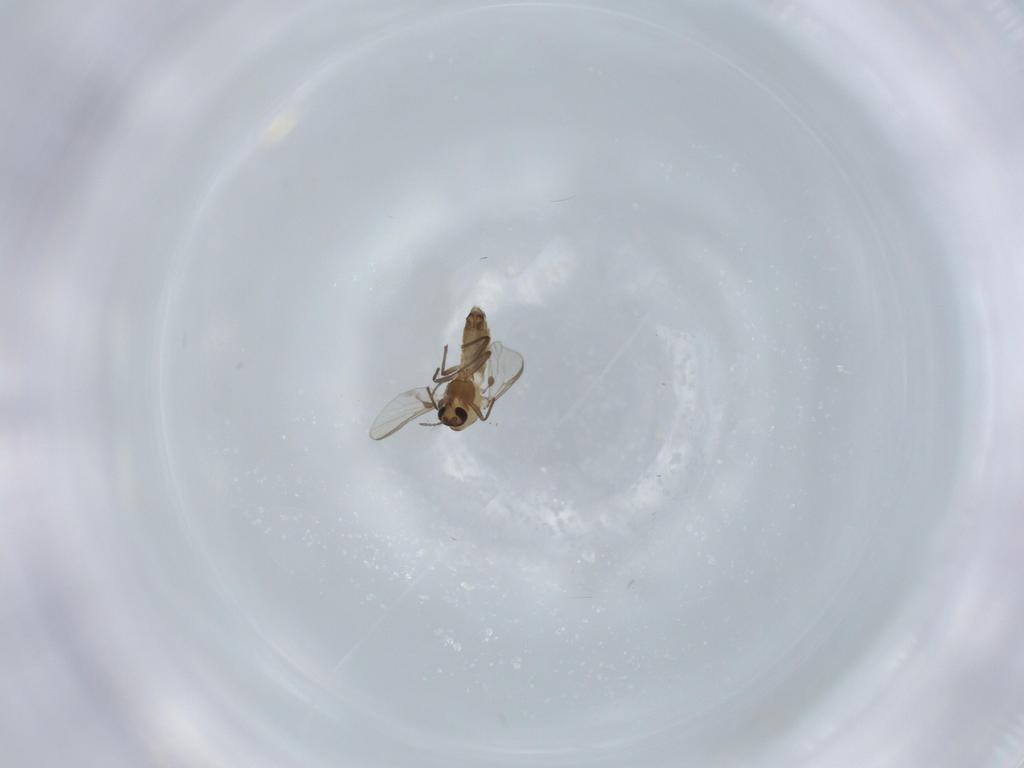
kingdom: Animalia
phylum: Arthropoda
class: Insecta
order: Diptera
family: Chironomidae
